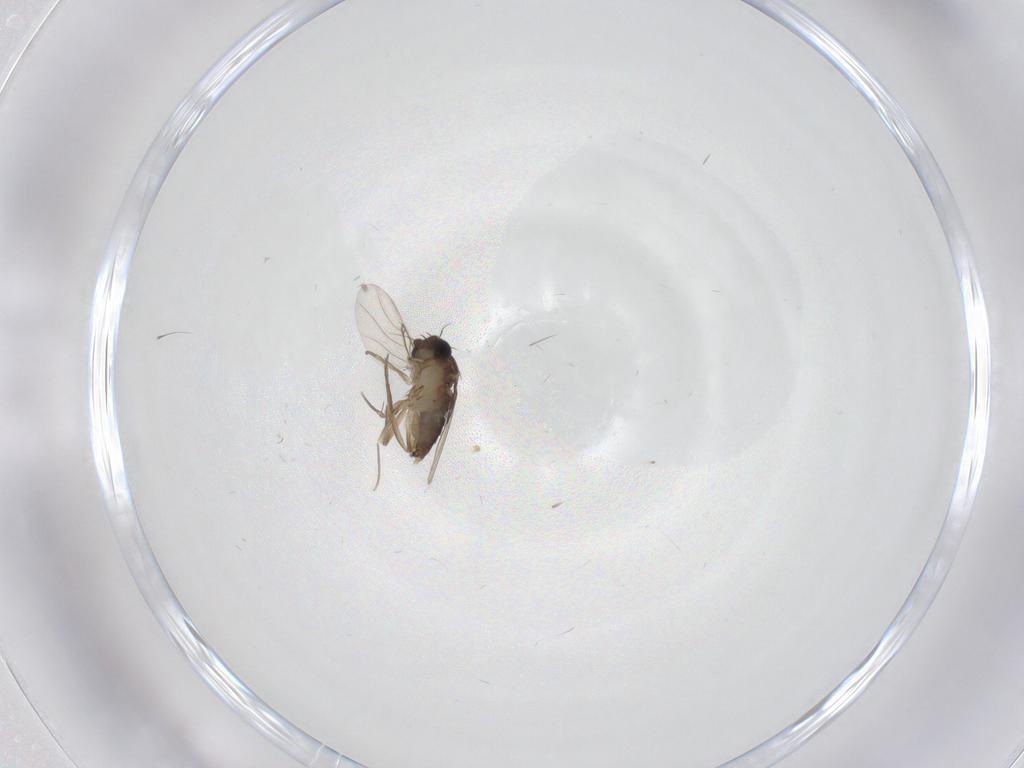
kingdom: Animalia
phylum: Arthropoda
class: Insecta
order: Diptera
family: Phoridae
